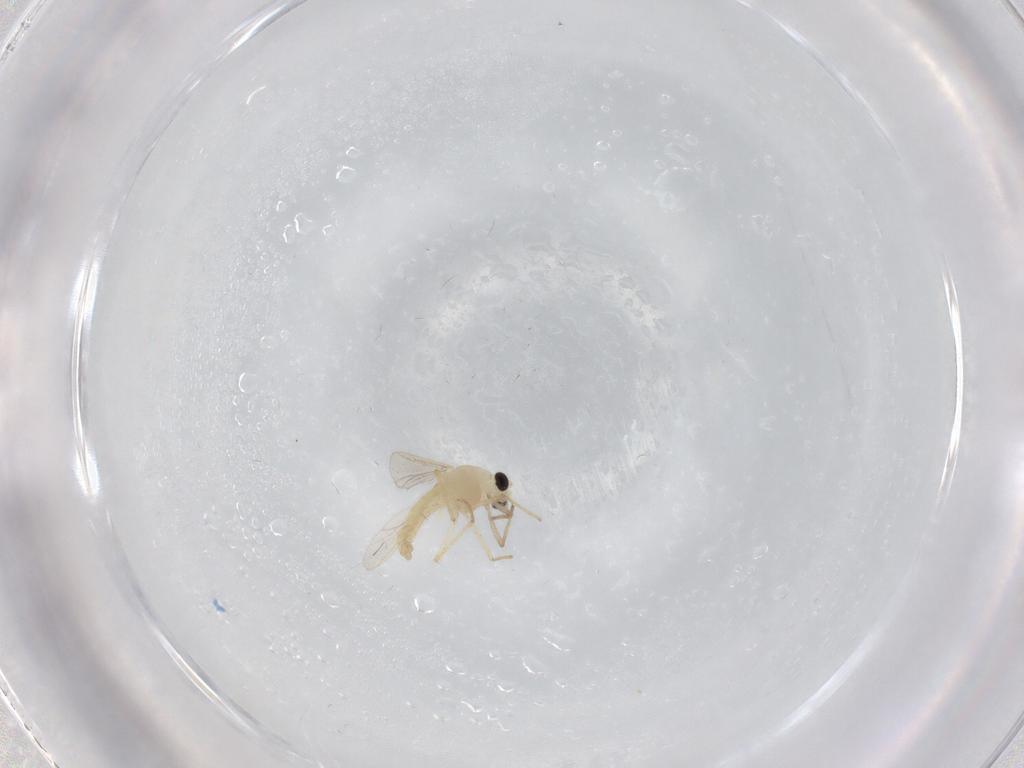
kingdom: Animalia
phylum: Arthropoda
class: Insecta
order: Diptera
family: Chironomidae
